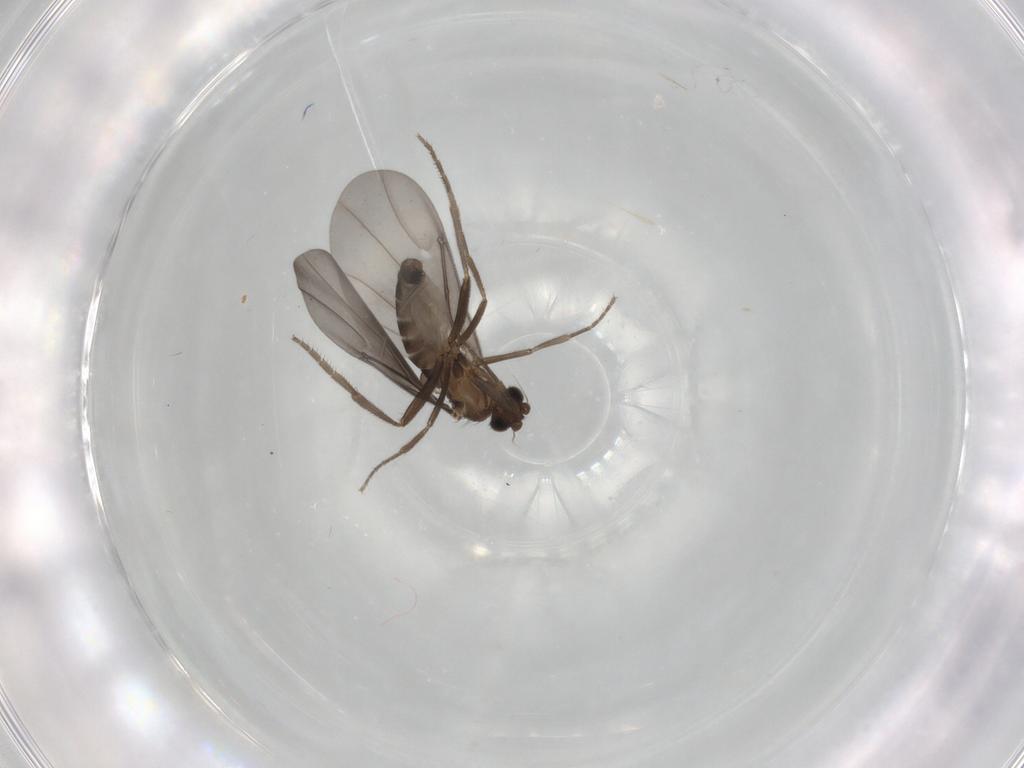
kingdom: Animalia
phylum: Arthropoda
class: Insecta
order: Diptera
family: Phoridae
